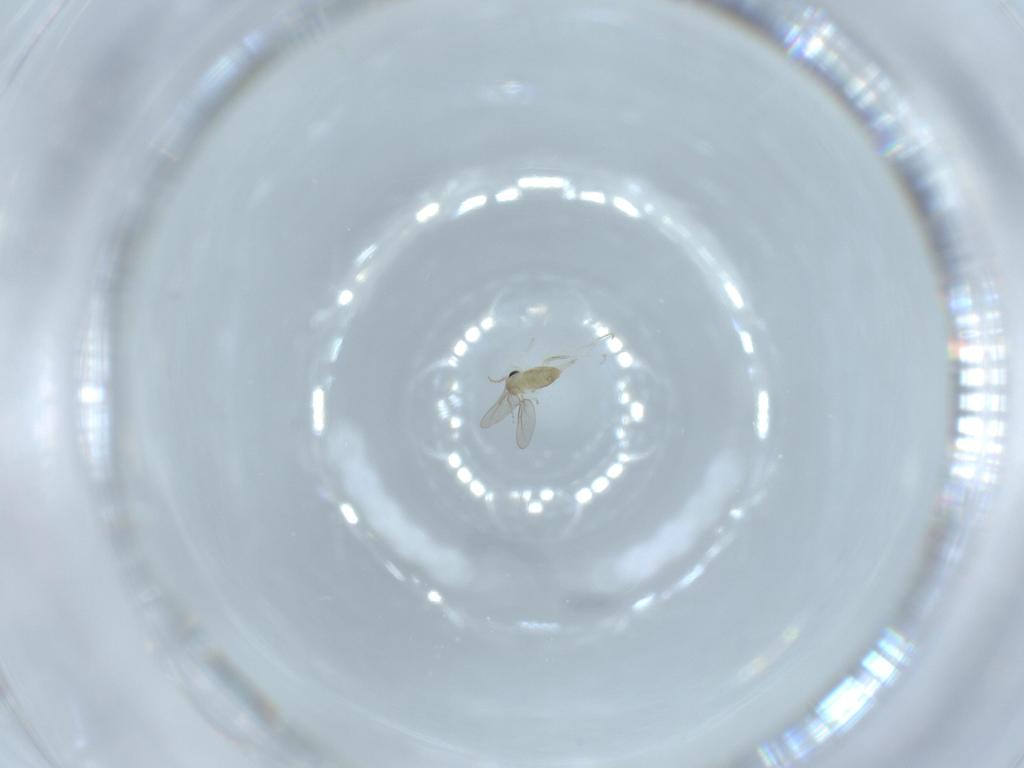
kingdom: Animalia
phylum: Arthropoda
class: Insecta
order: Diptera
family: Cecidomyiidae
